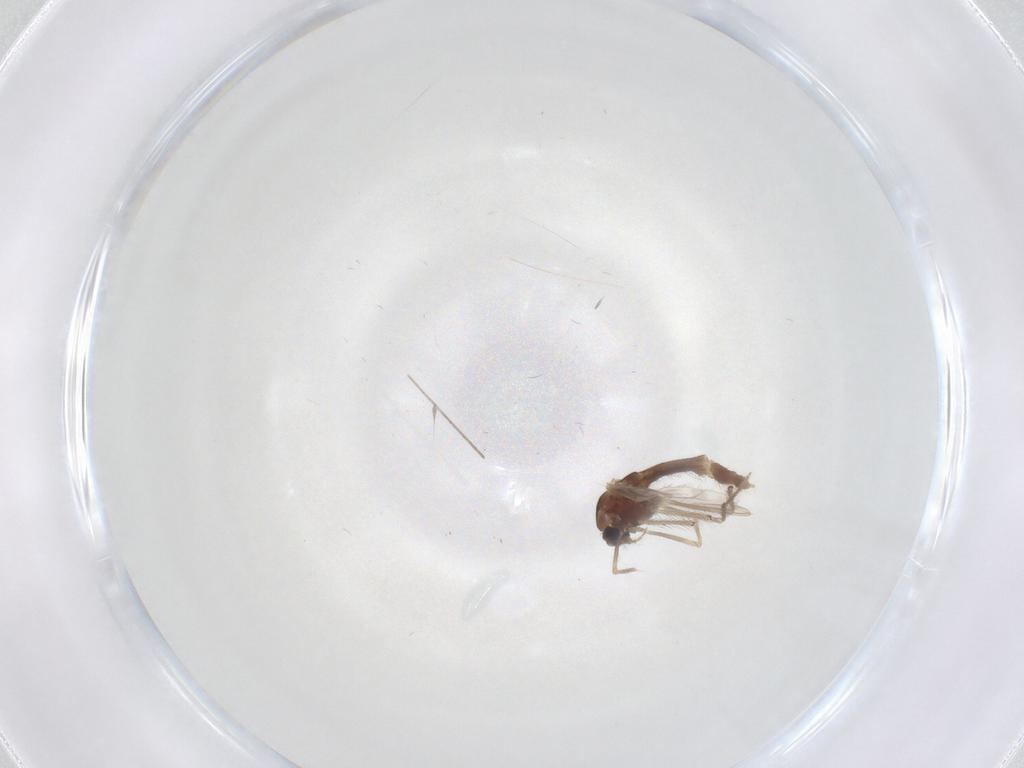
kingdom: Animalia
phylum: Arthropoda
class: Insecta
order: Diptera
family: Chironomidae
